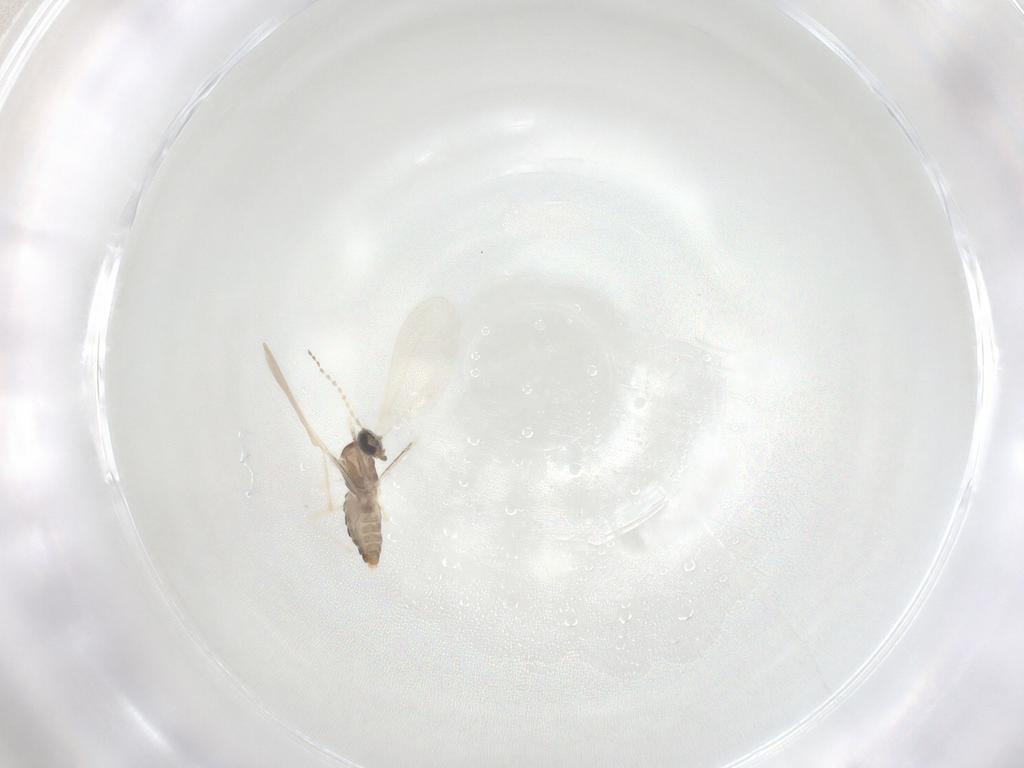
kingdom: Animalia
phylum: Arthropoda
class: Insecta
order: Diptera
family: Cecidomyiidae
